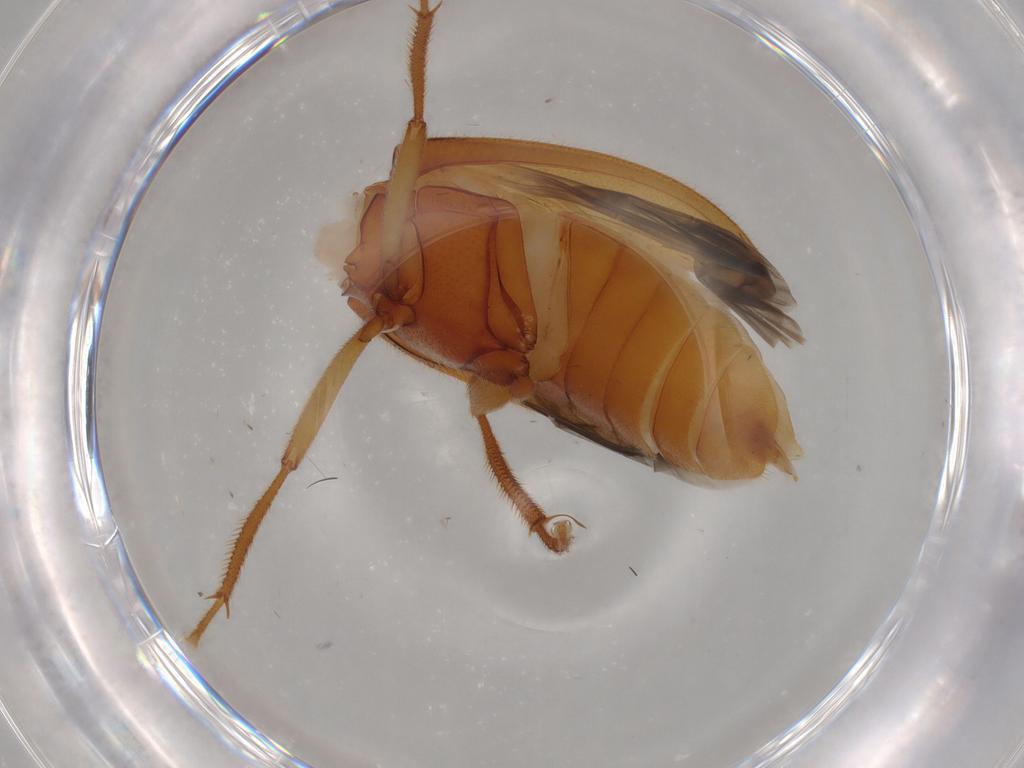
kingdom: Animalia
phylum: Arthropoda
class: Insecta
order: Coleoptera
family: Ptilodactylidae
